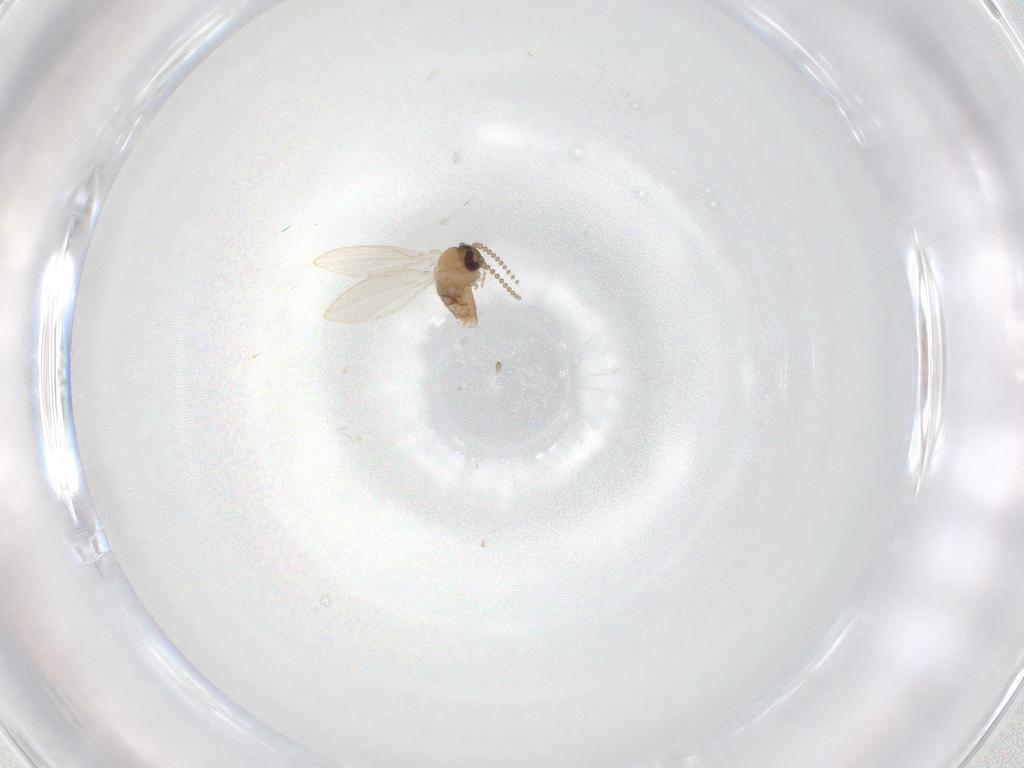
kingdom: Animalia
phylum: Arthropoda
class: Insecta
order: Diptera
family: Psychodidae
